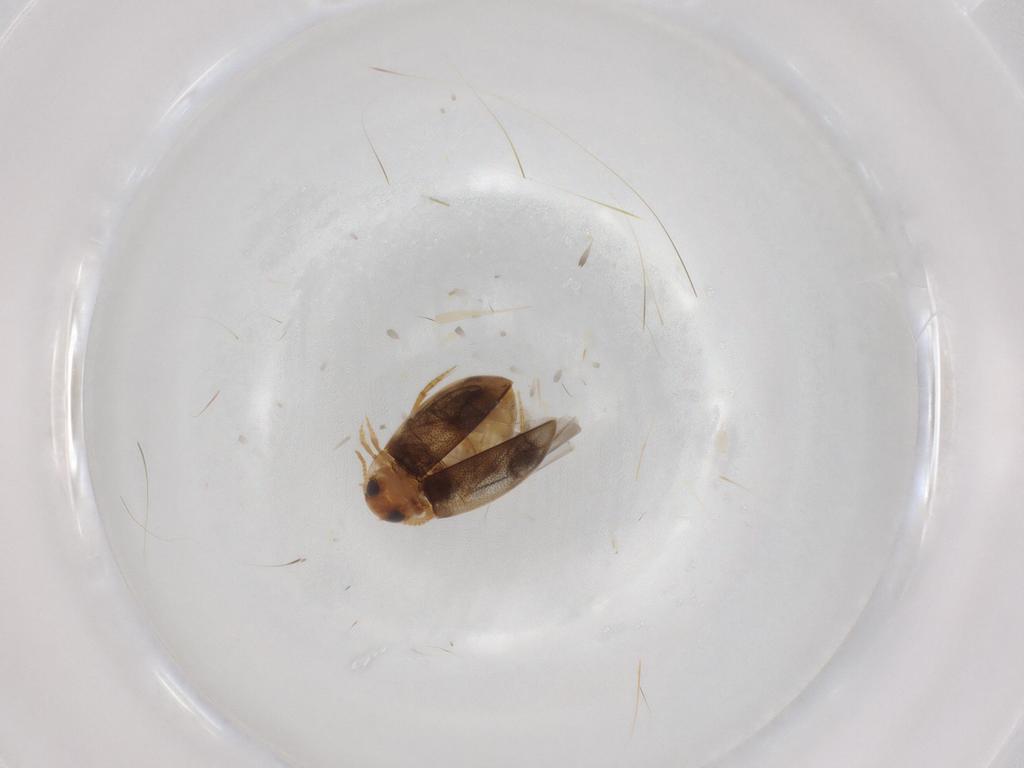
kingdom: Animalia
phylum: Arthropoda
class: Insecta
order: Coleoptera
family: Dytiscidae
